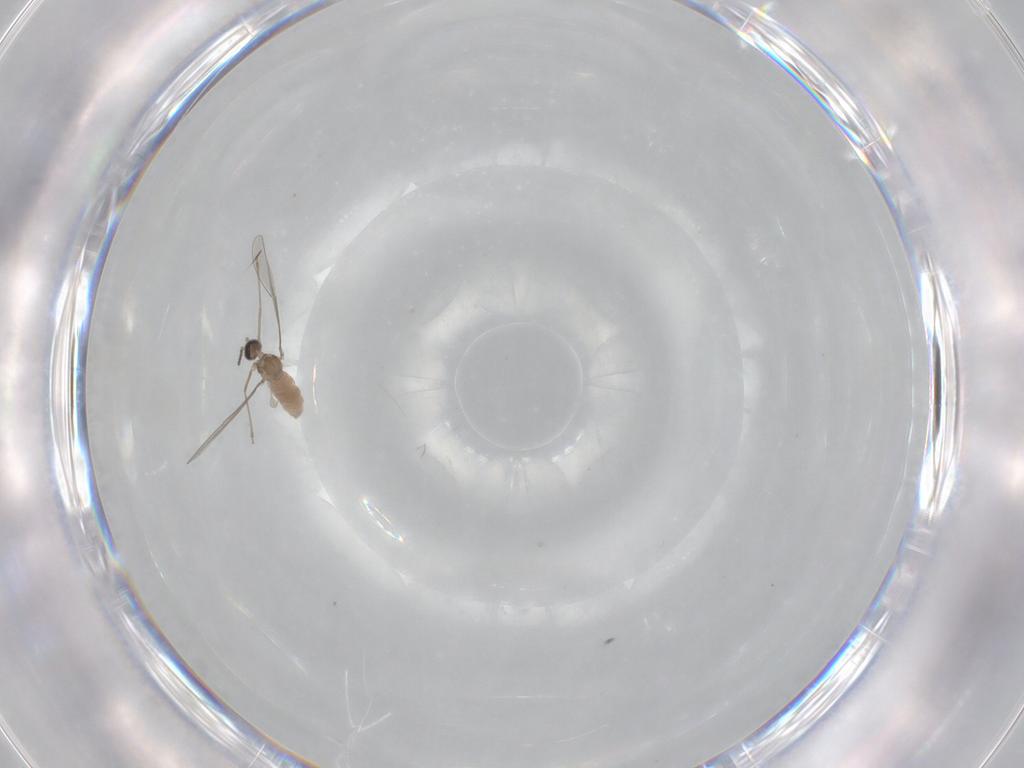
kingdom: Animalia
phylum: Arthropoda
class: Insecta
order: Diptera
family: Cecidomyiidae
